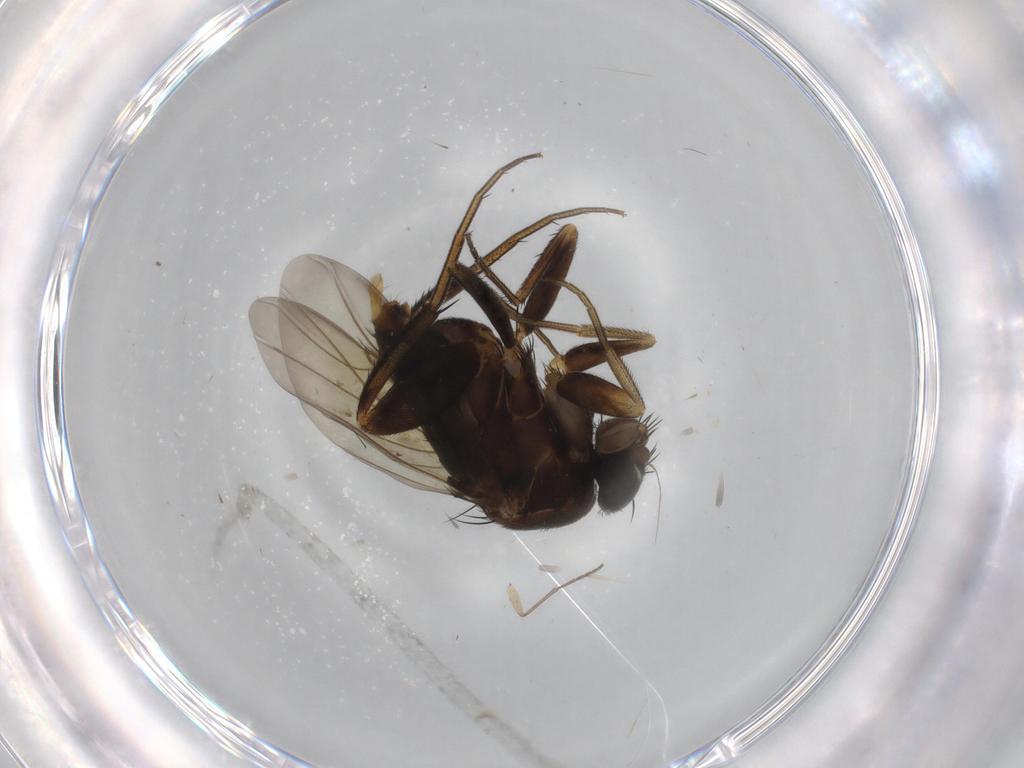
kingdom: Animalia
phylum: Arthropoda
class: Insecta
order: Diptera
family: Phoridae
